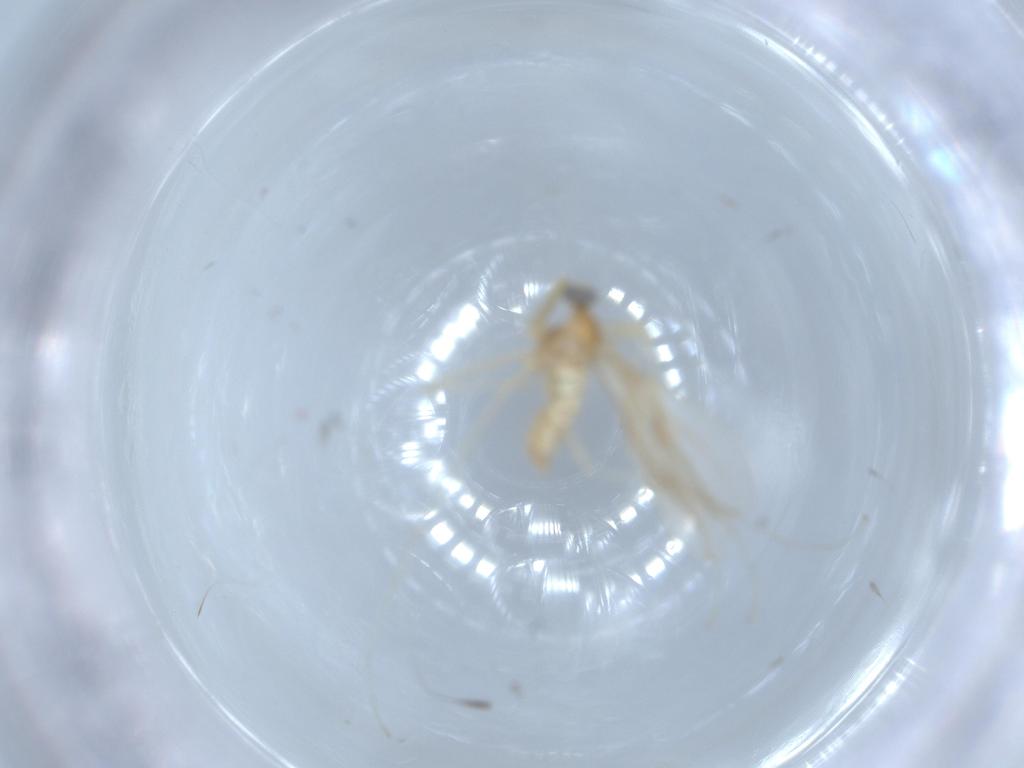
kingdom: Animalia
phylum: Arthropoda
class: Insecta
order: Diptera
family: Cecidomyiidae
